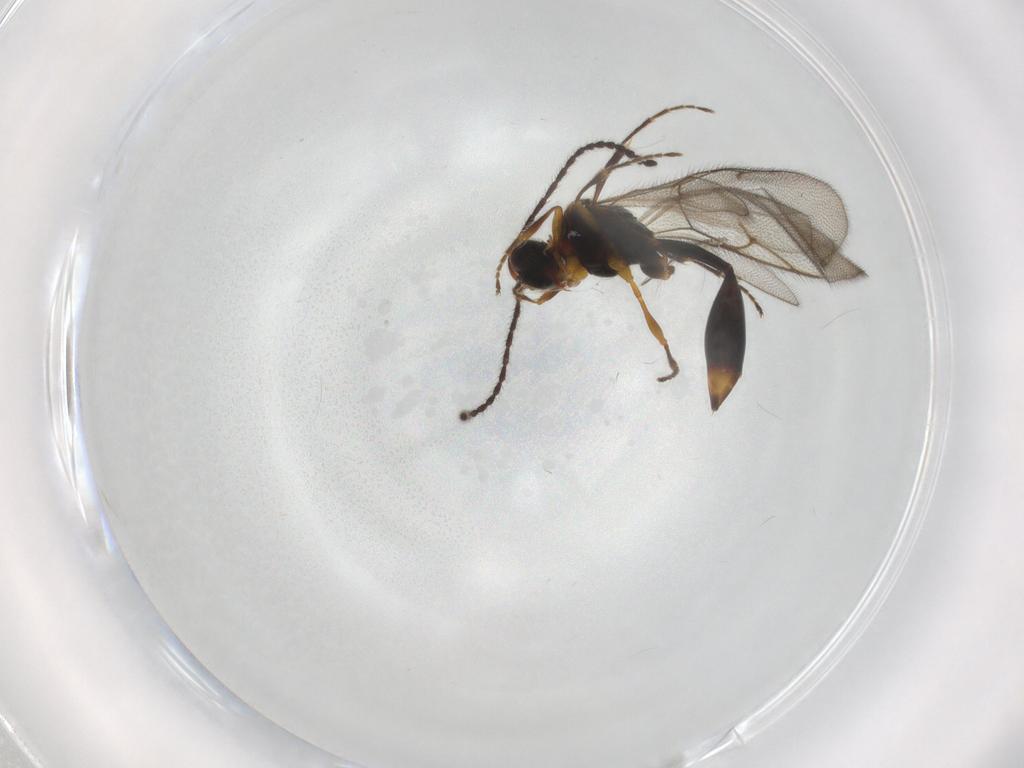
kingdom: Animalia
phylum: Arthropoda
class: Insecta
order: Hymenoptera
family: Diapriidae
